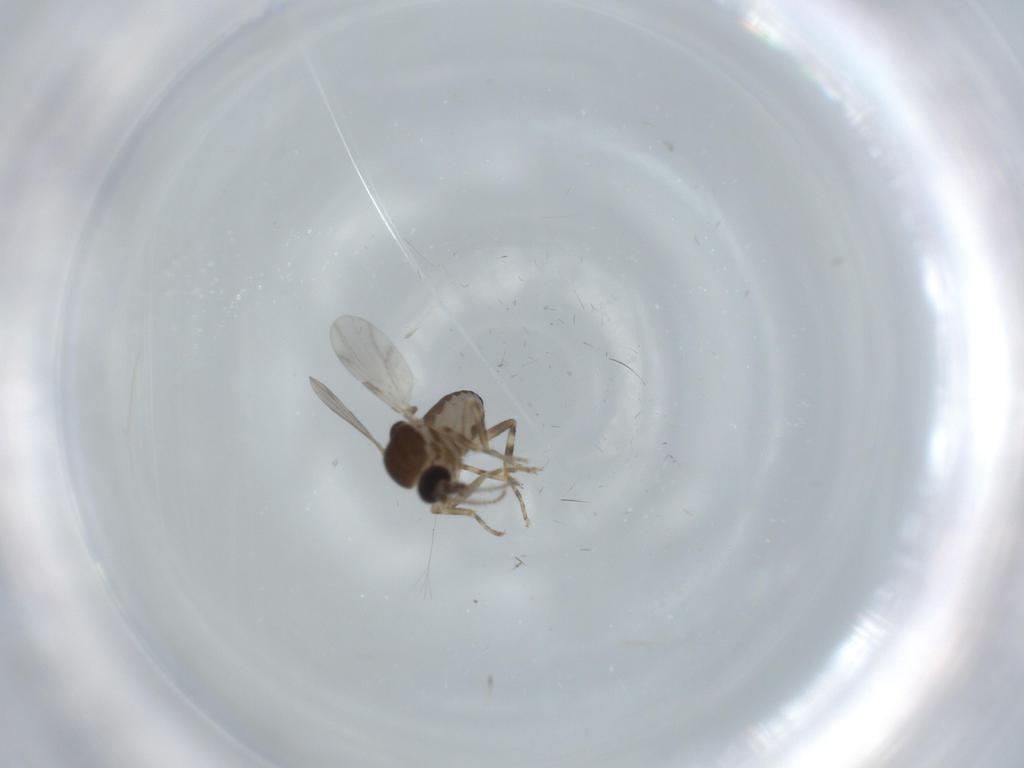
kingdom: Animalia
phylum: Arthropoda
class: Insecta
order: Diptera
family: Ceratopogonidae
